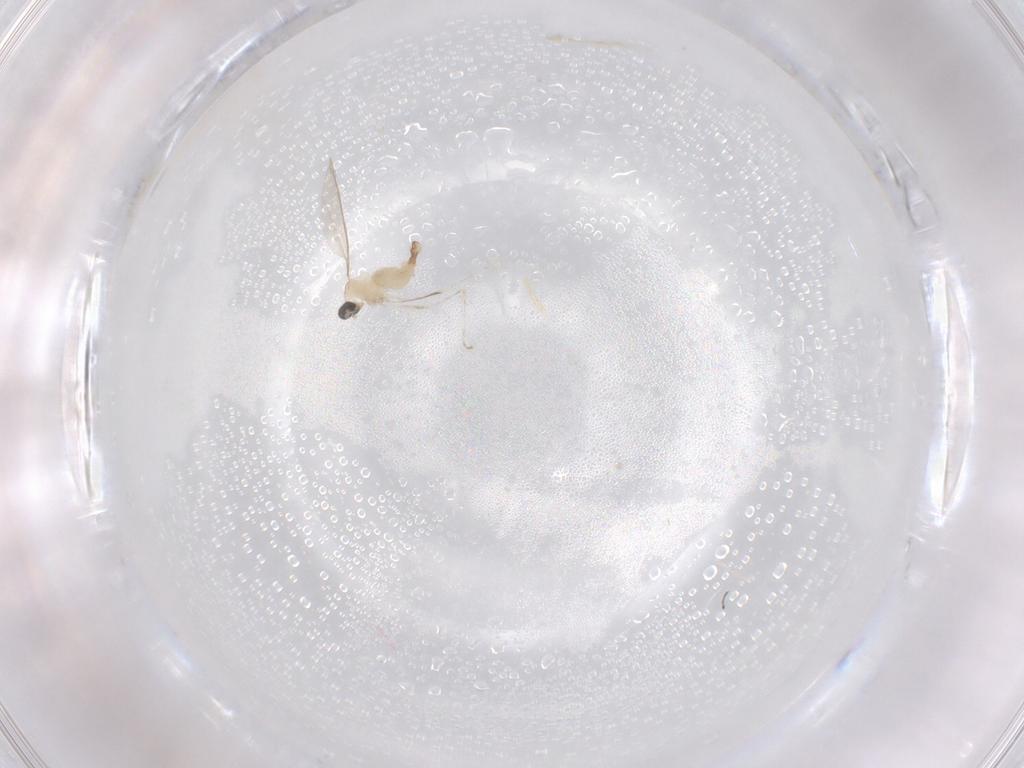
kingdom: Animalia
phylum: Arthropoda
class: Insecta
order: Diptera
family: Cecidomyiidae
